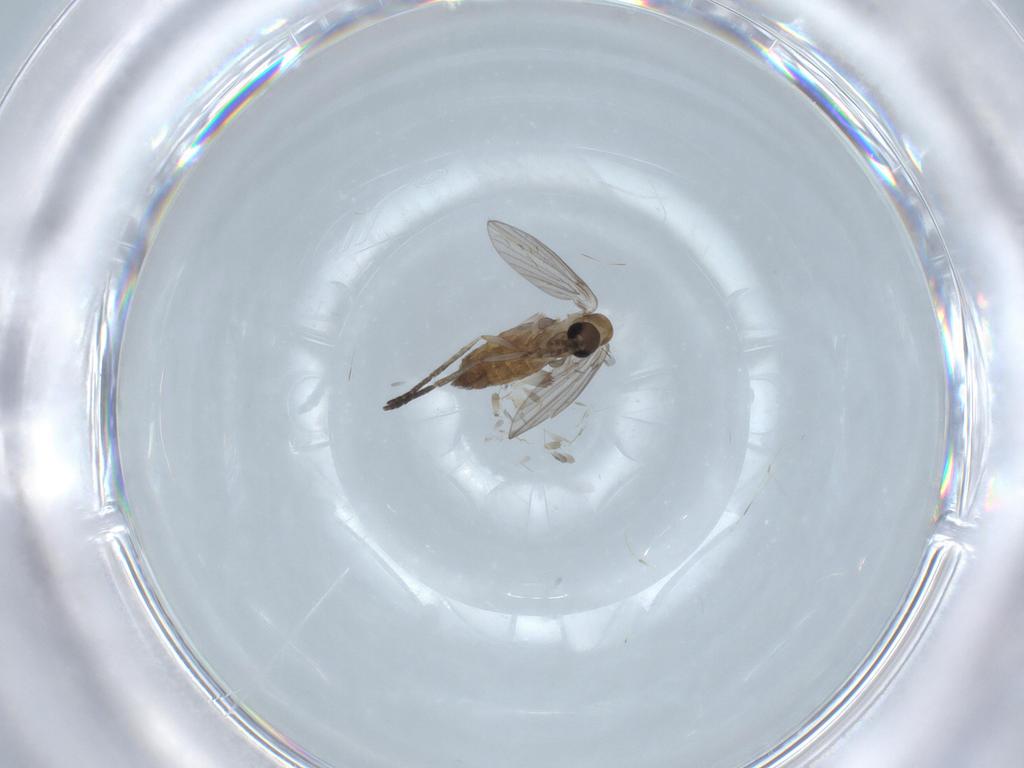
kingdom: Animalia
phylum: Arthropoda
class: Insecta
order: Diptera
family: Psychodidae
